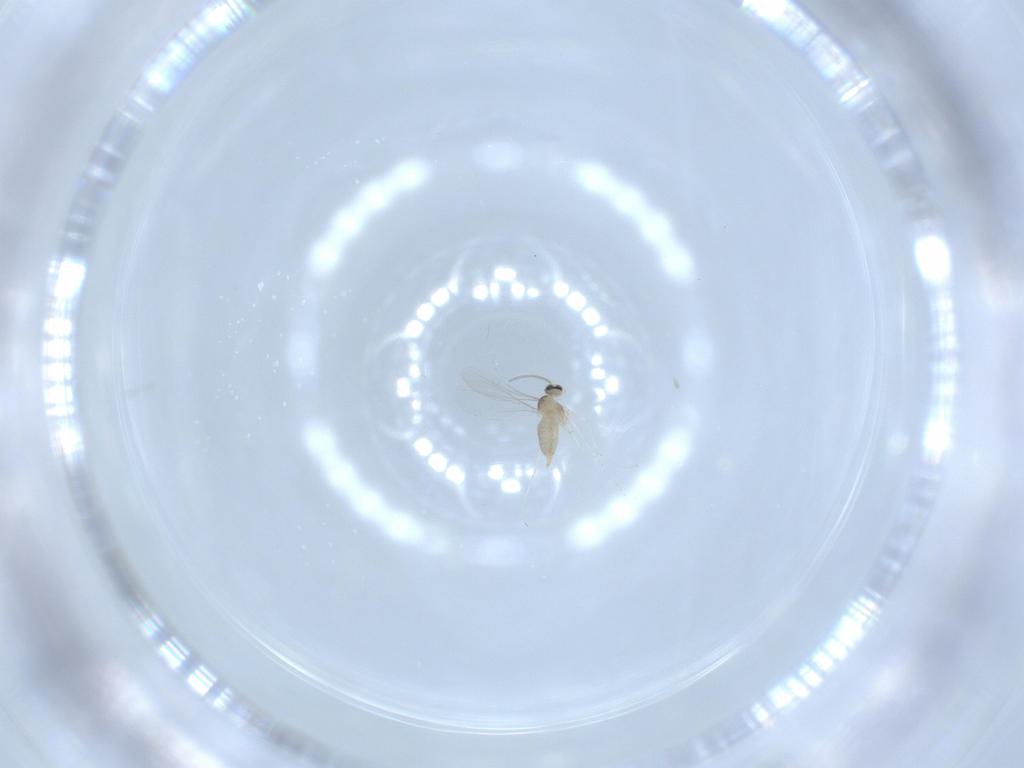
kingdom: Animalia
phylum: Arthropoda
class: Insecta
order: Diptera
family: Cecidomyiidae
